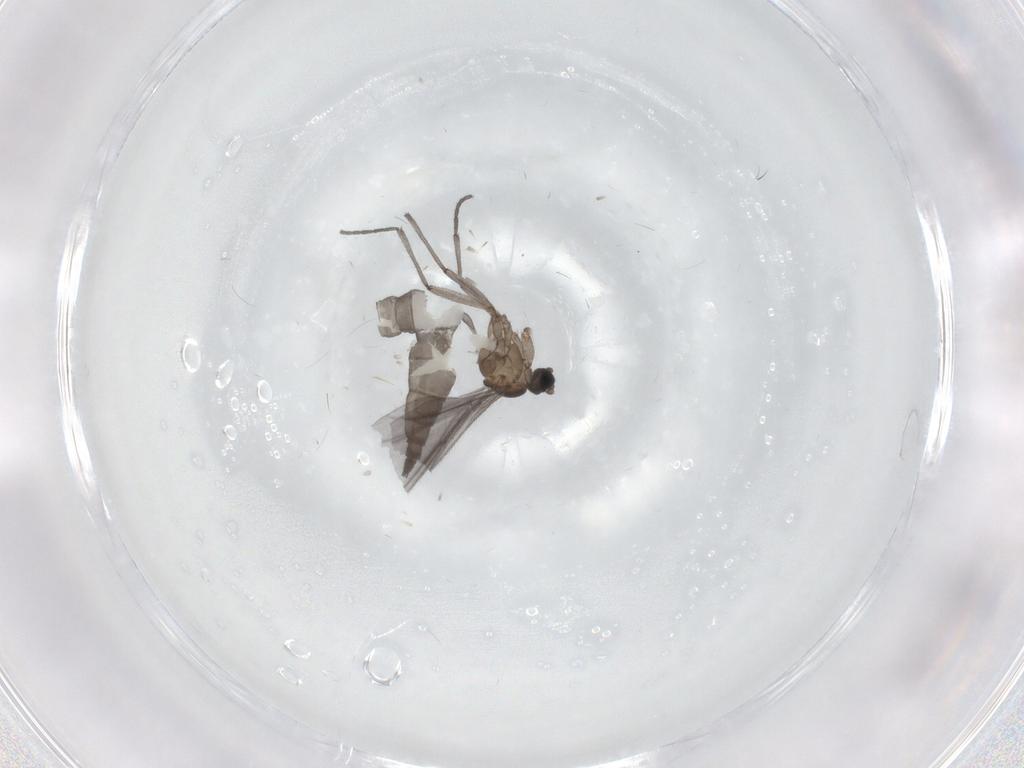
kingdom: Animalia
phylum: Arthropoda
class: Insecta
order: Diptera
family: Sciaridae
